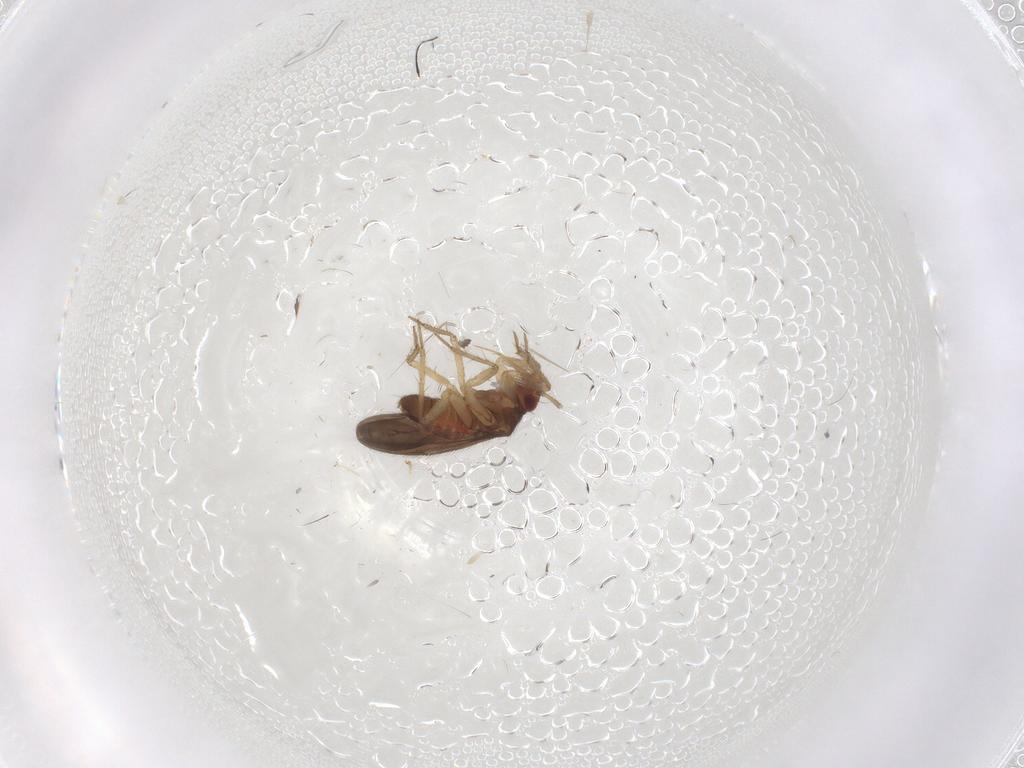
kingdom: Animalia
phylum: Arthropoda
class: Insecta
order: Hemiptera
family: Ceratocombidae
